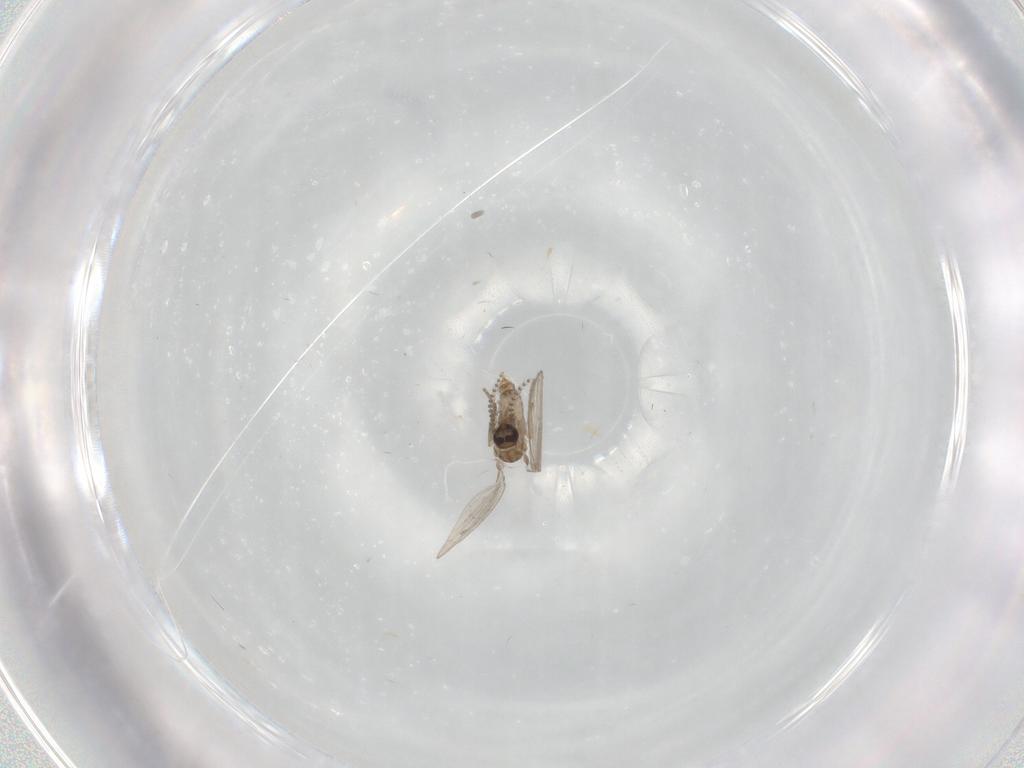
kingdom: Animalia
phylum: Arthropoda
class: Insecta
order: Diptera
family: Psychodidae
